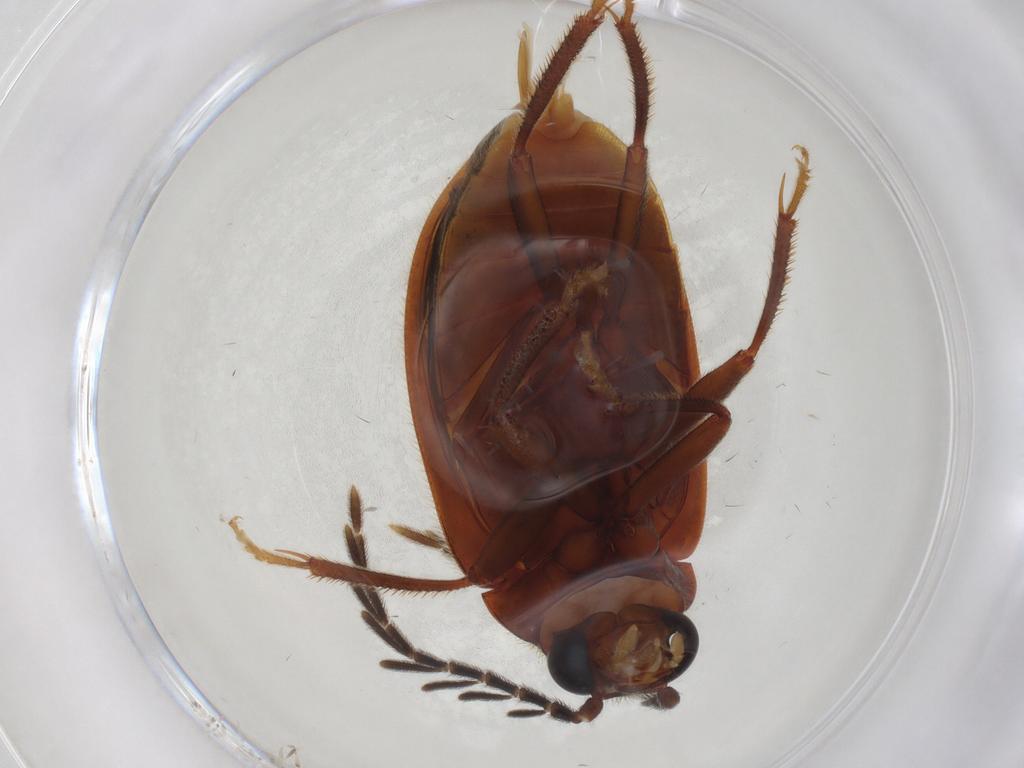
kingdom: Animalia
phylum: Arthropoda
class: Insecta
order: Coleoptera
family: Ptilodactylidae
